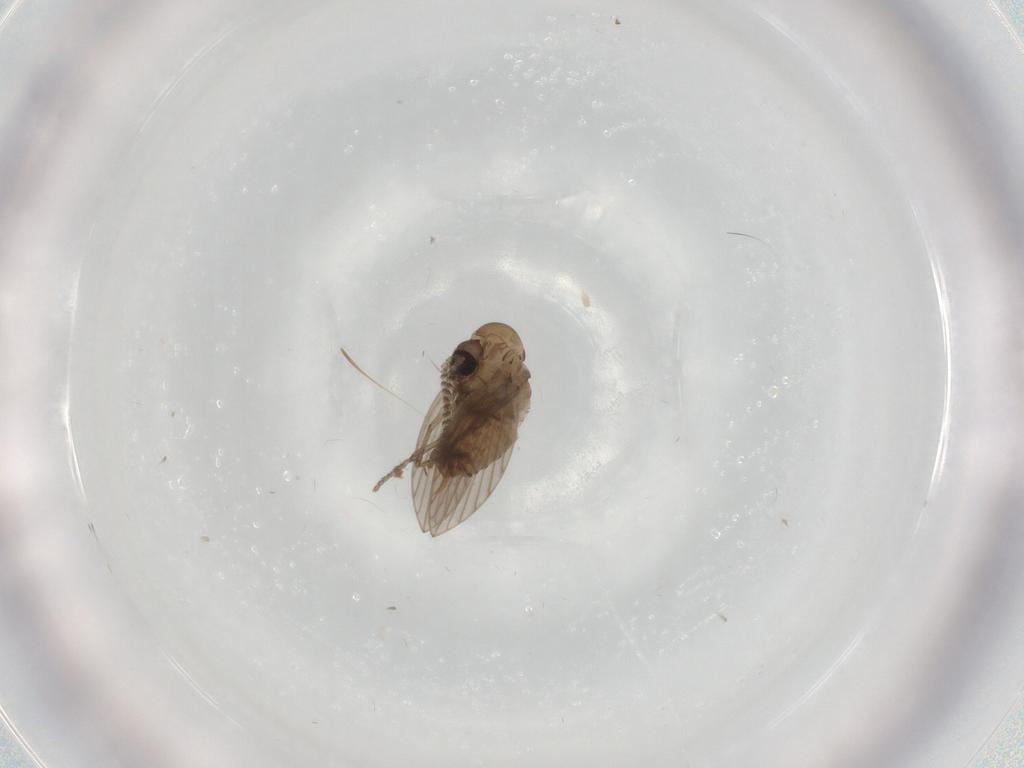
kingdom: Animalia
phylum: Arthropoda
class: Insecta
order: Diptera
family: Psychodidae
